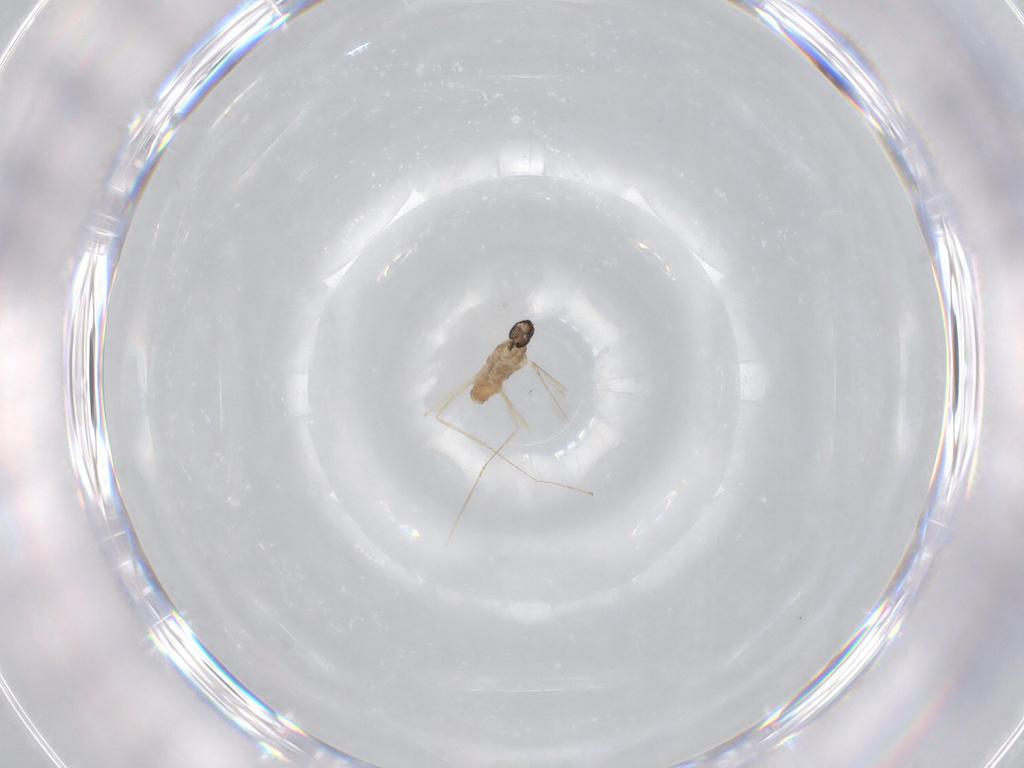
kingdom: Animalia
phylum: Arthropoda
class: Insecta
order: Diptera
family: Cecidomyiidae
